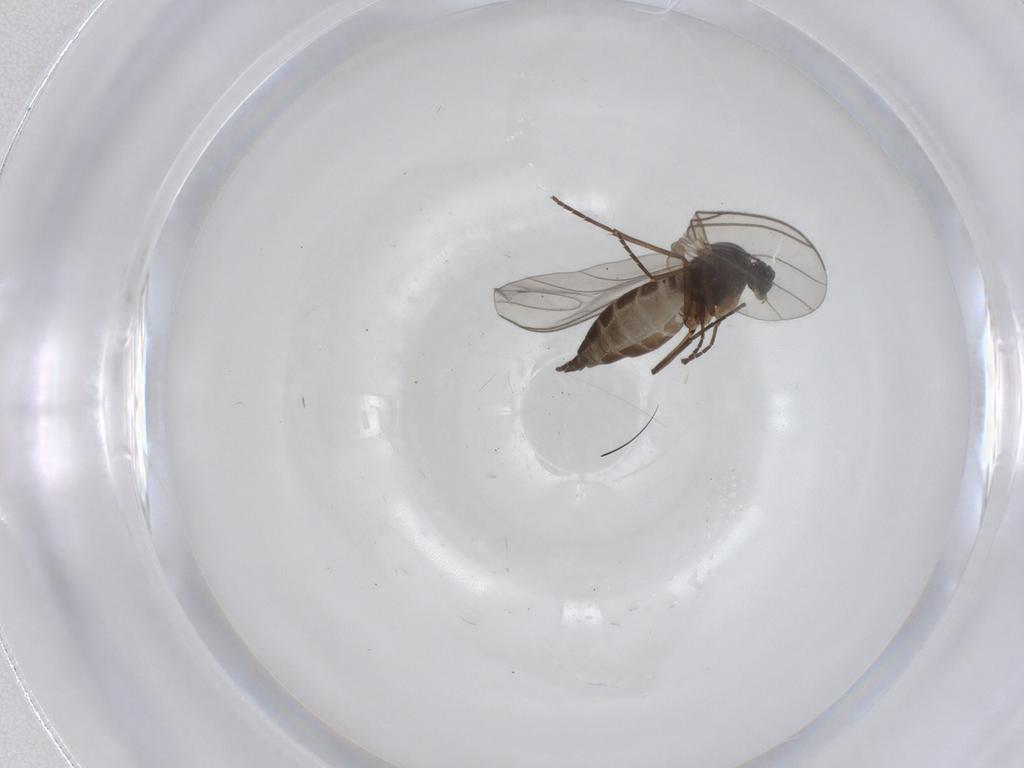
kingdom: Animalia
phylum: Arthropoda
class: Insecta
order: Diptera
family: Sciaridae
